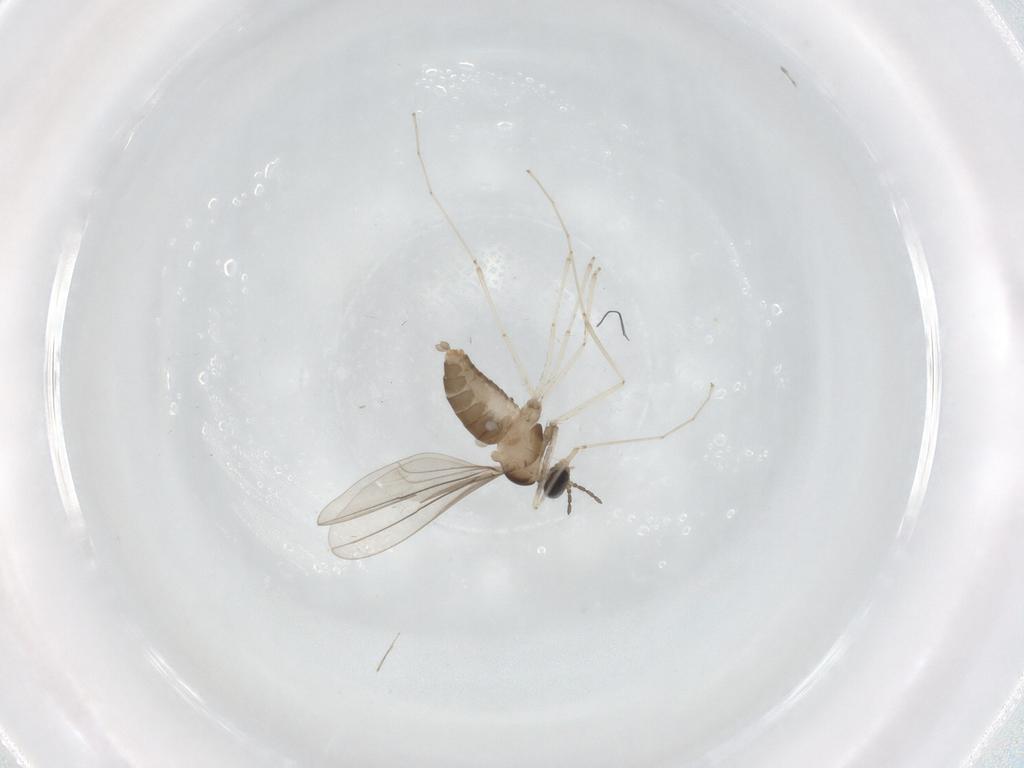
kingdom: Animalia
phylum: Arthropoda
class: Insecta
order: Diptera
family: Cecidomyiidae
